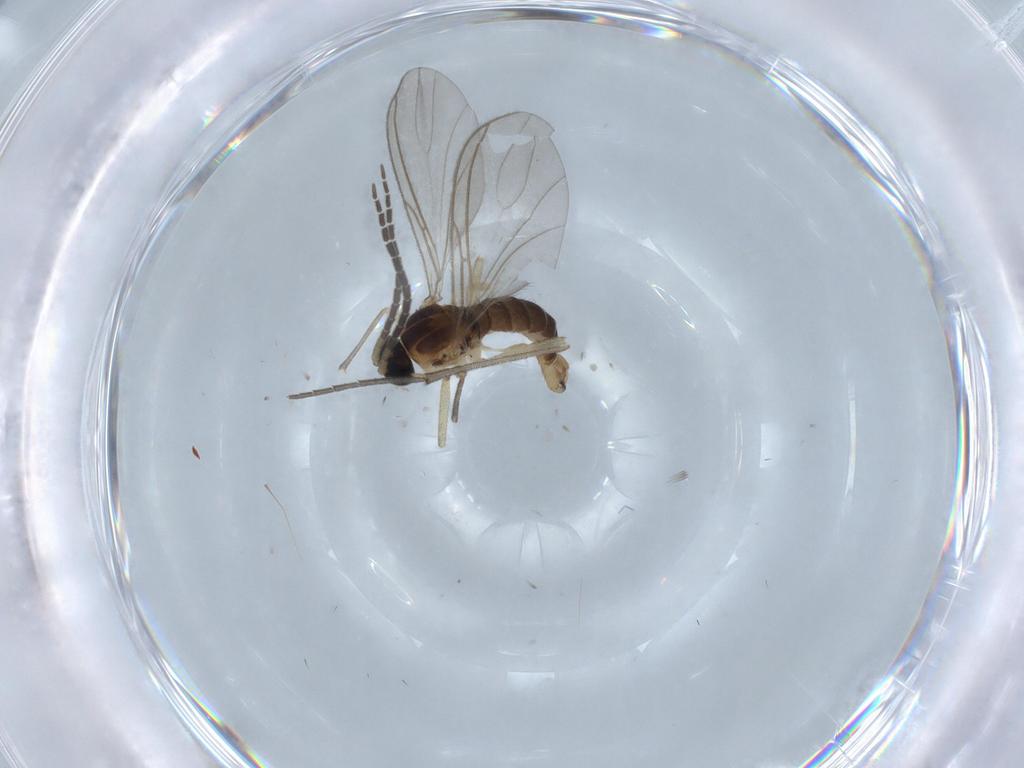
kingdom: Animalia
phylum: Arthropoda
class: Insecta
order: Diptera
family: Sciaridae
